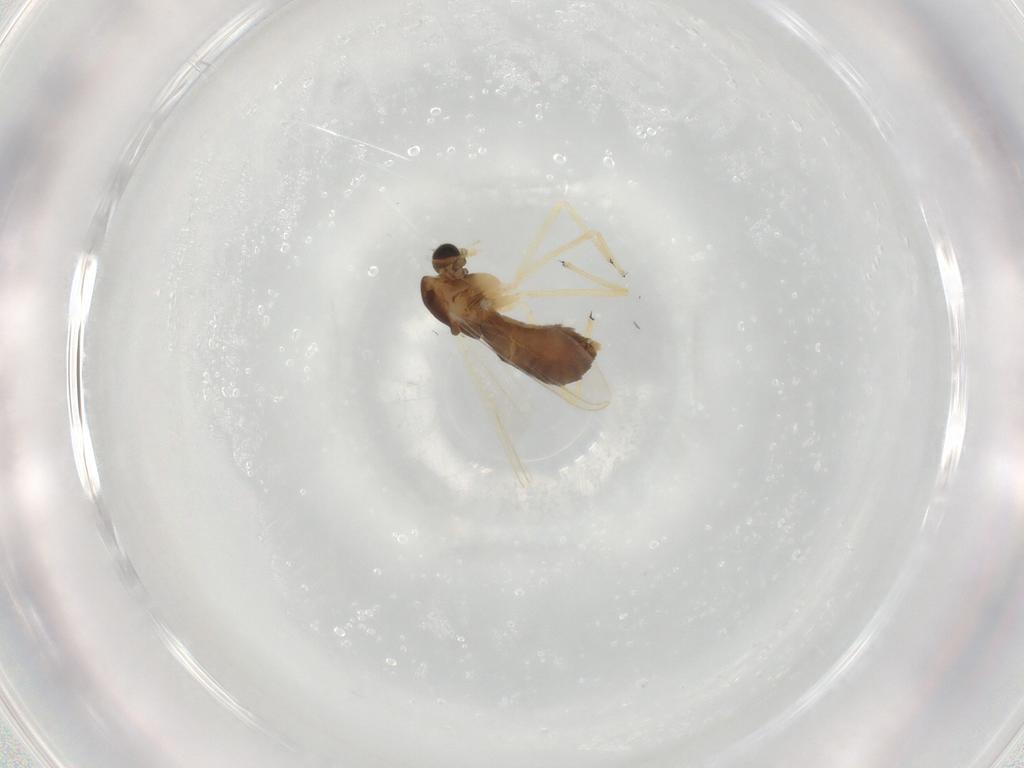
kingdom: Animalia
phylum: Arthropoda
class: Insecta
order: Diptera
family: Chironomidae
